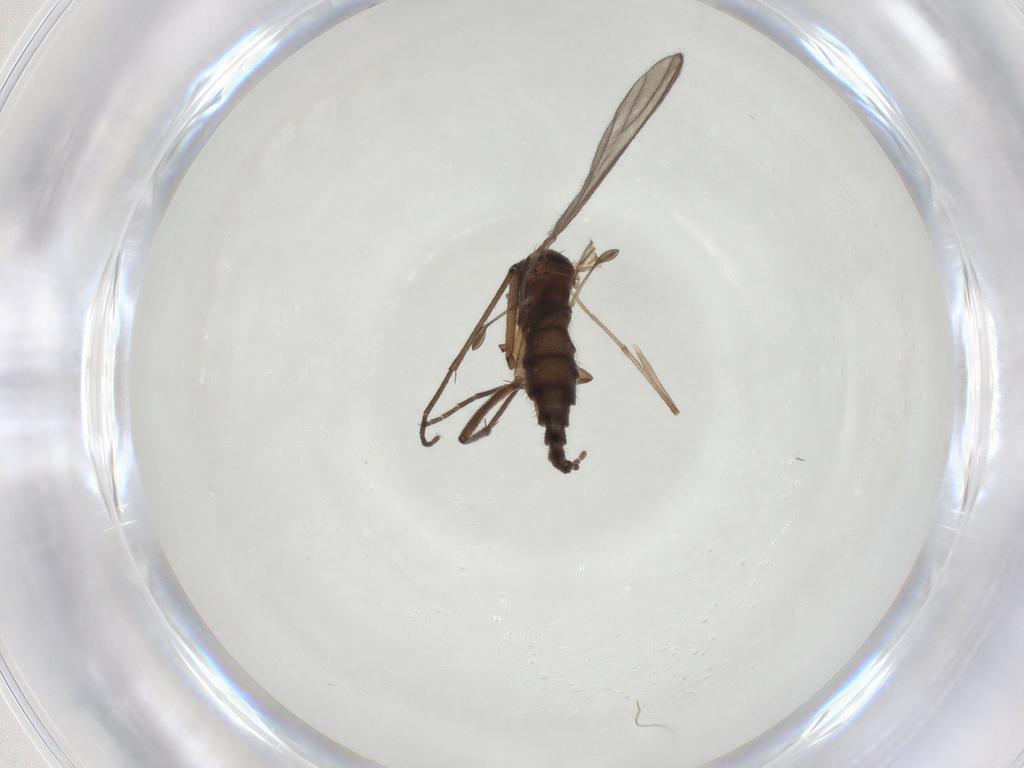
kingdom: Animalia
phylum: Arthropoda
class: Insecta
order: Diptera
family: Sciaridae
